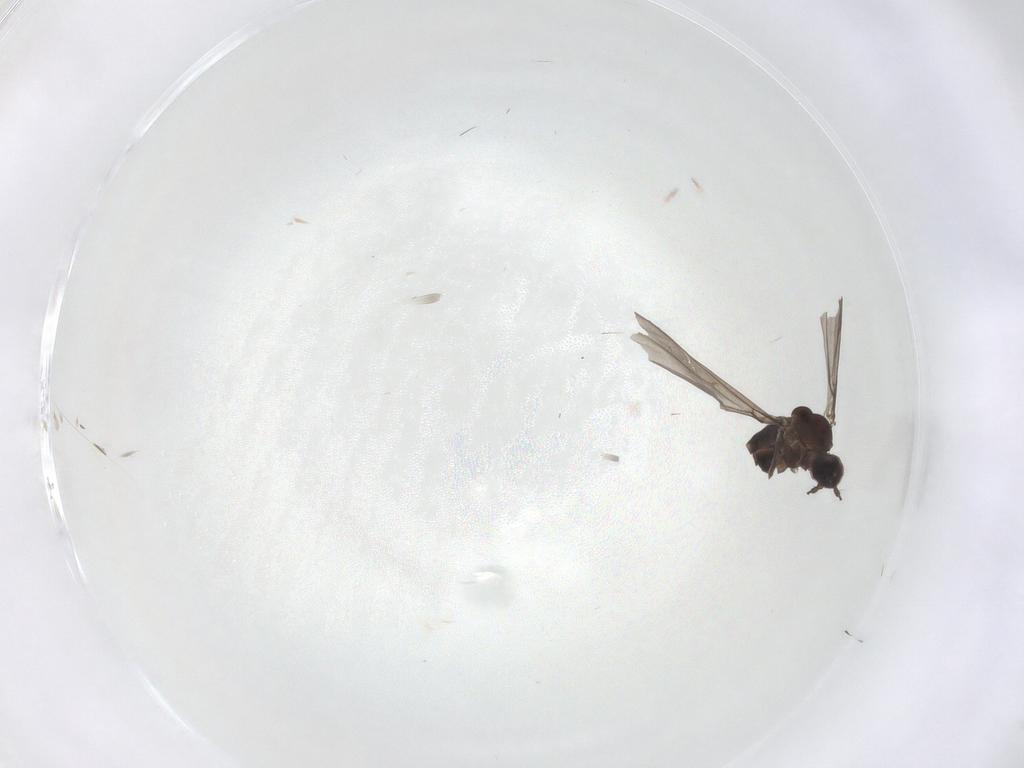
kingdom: Animalia
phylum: Arthropoda
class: Insecta
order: Diptera
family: Cecidomyiidae
